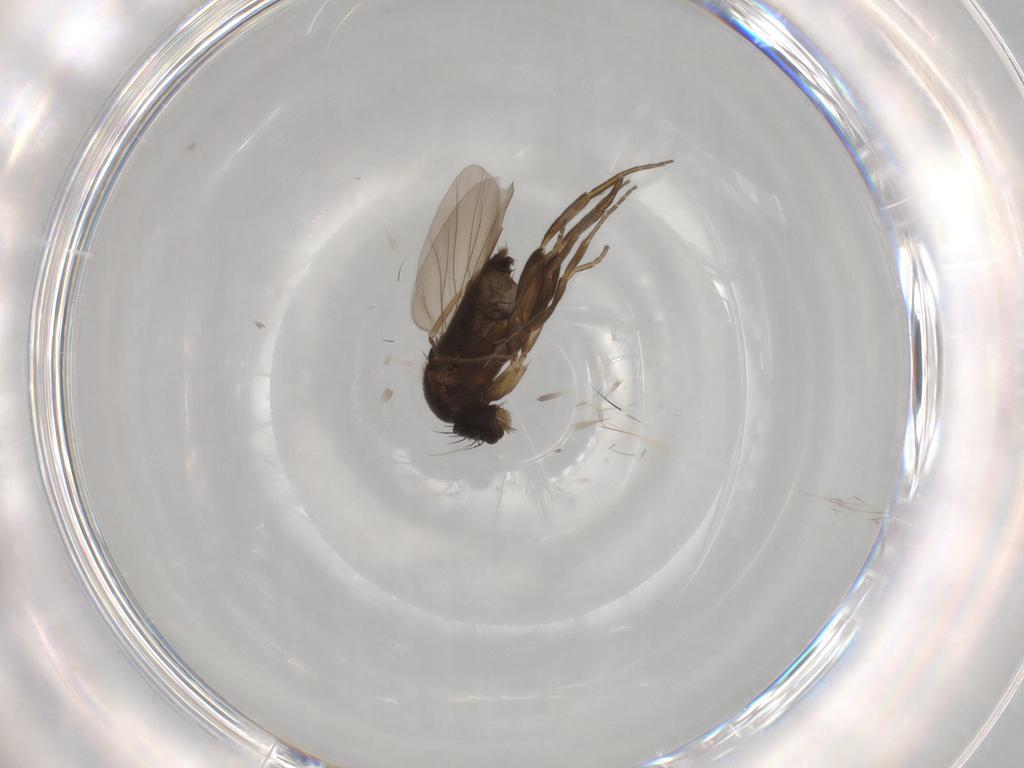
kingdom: Animalia
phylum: Arthropoda
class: Insecta
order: Diptera
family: Phoridae
